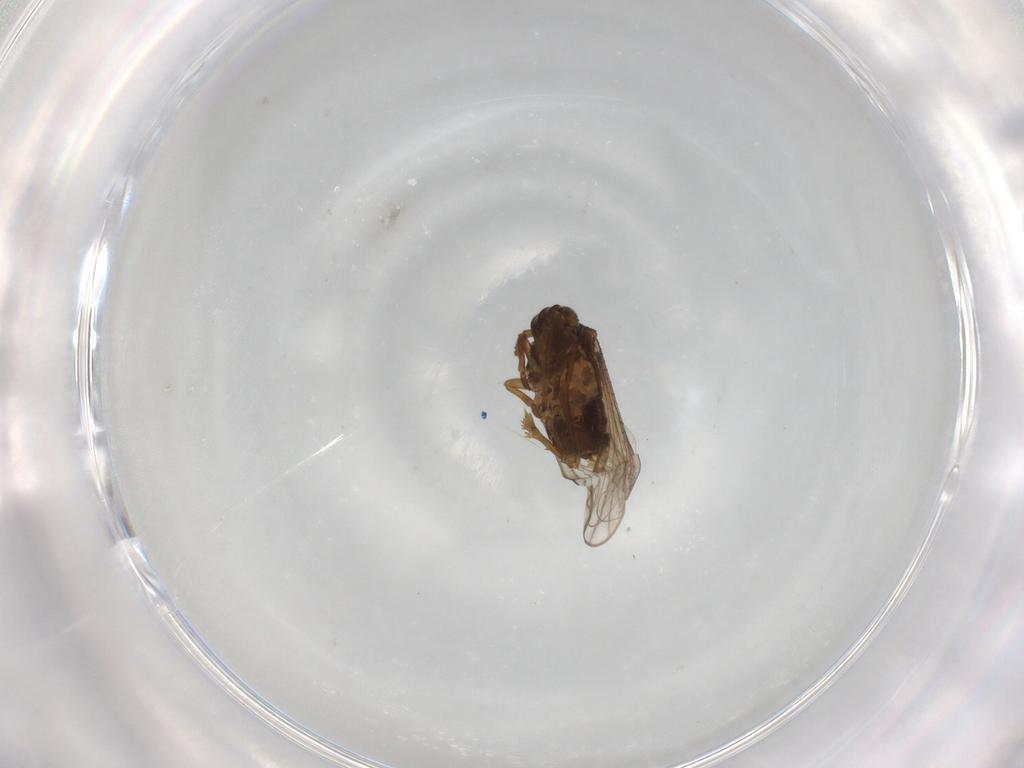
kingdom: Animalia
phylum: Arthropoda
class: Insecta
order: Hemiptera
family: Delphacidae
